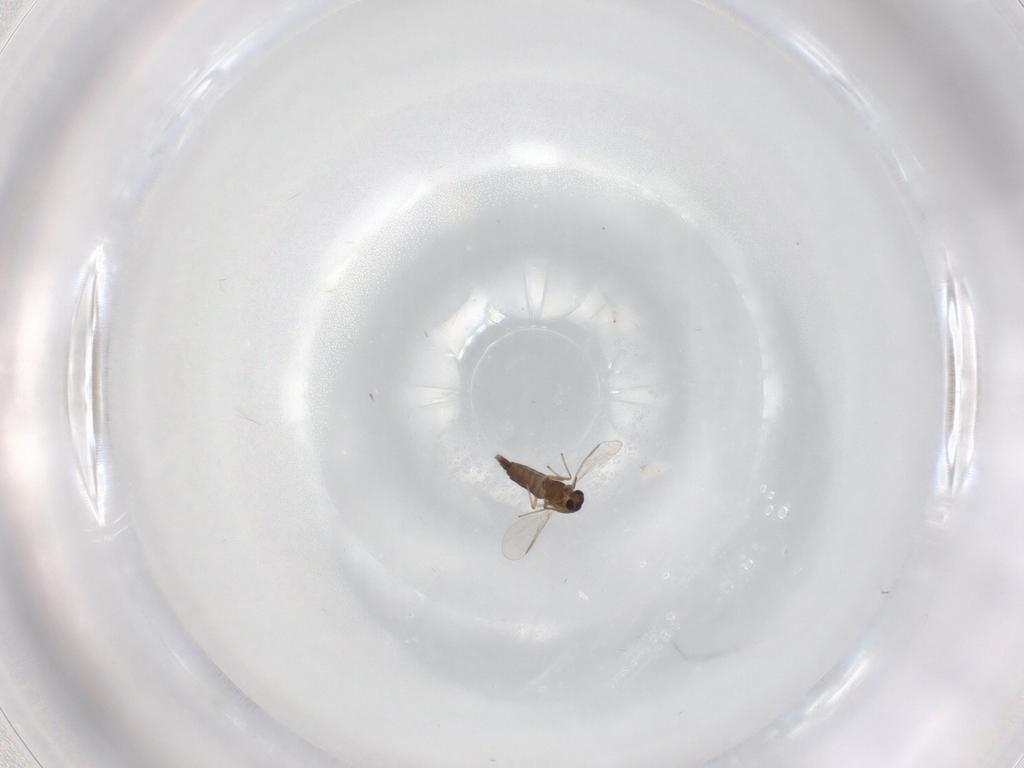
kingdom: Animalia
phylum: Arthropoda
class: Insecta
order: Diptera
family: Chironomidae
